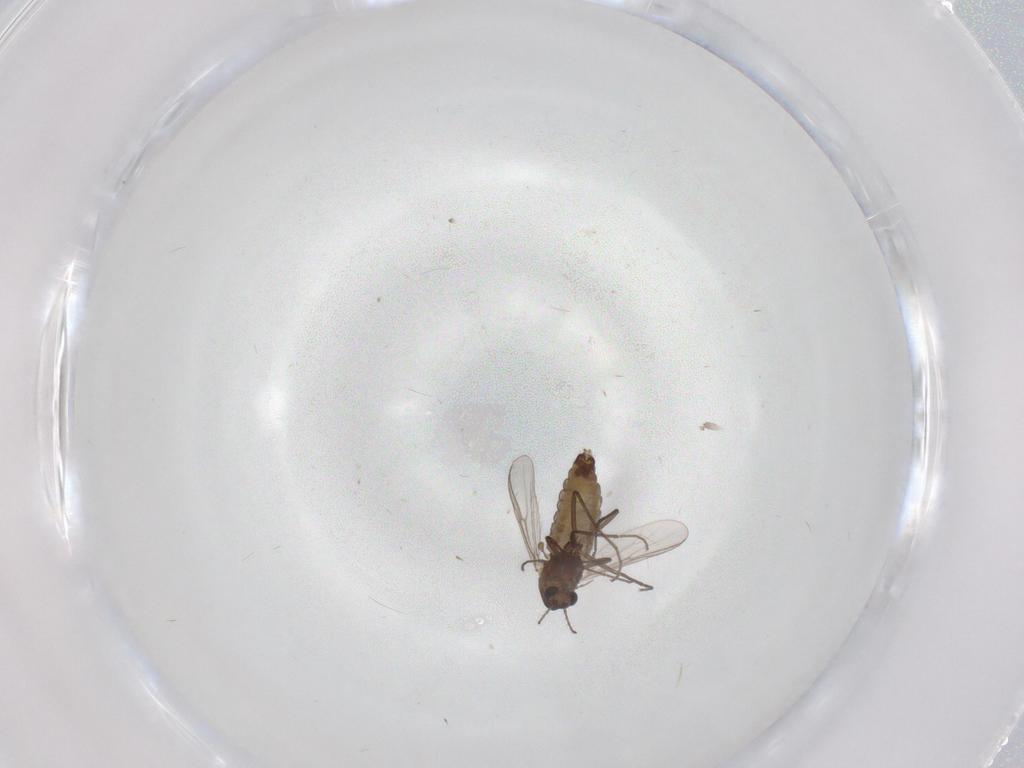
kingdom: Animalia
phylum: Arthropoda
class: Insecta
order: Diptera
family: Chironomidae
